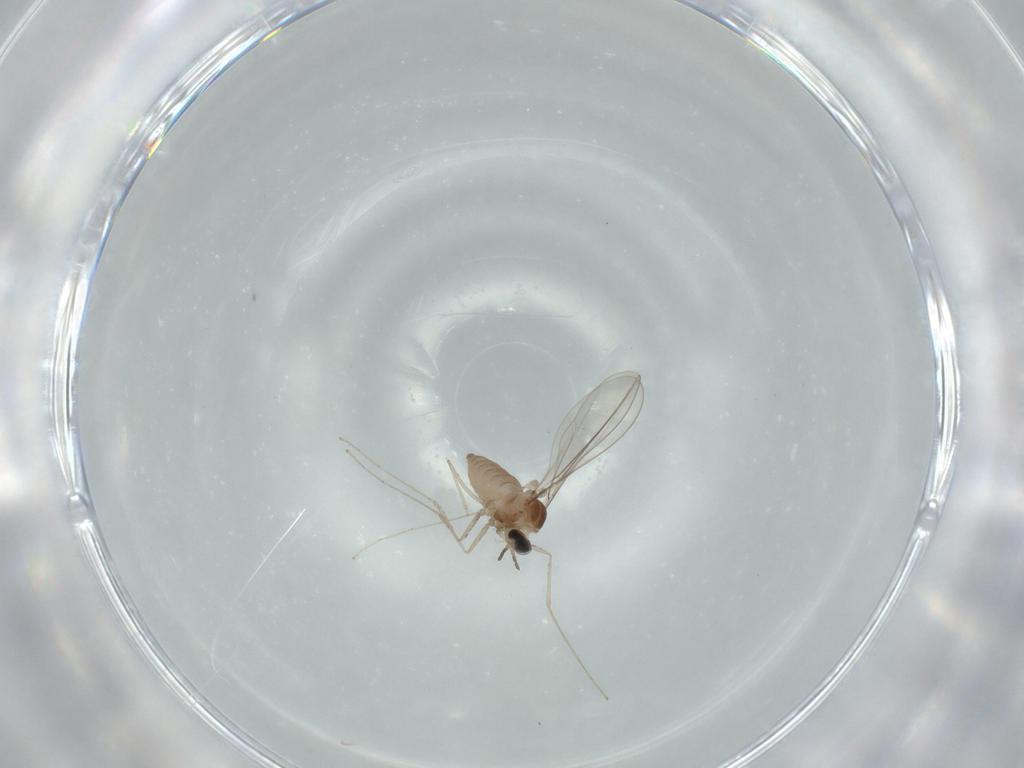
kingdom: Animalia
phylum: Arthropoda
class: Insecta
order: Diptera
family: Cecidomyiidae
